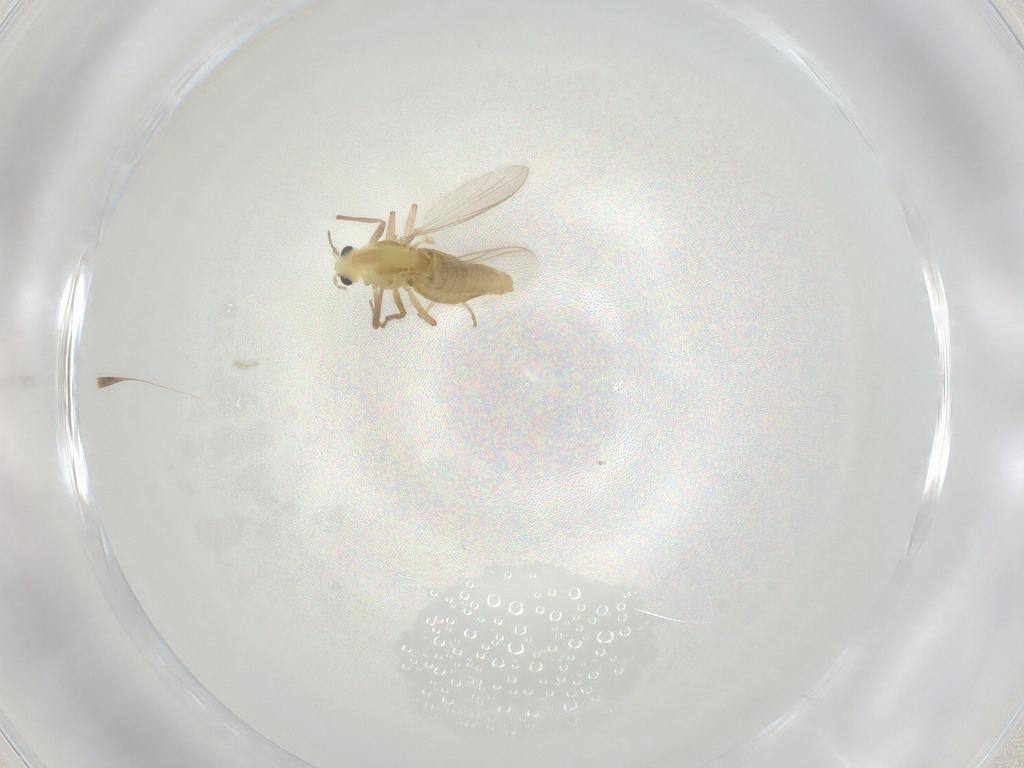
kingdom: Animalia
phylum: Arthropoda
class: Insecta
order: Diptera
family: Chironomidae
